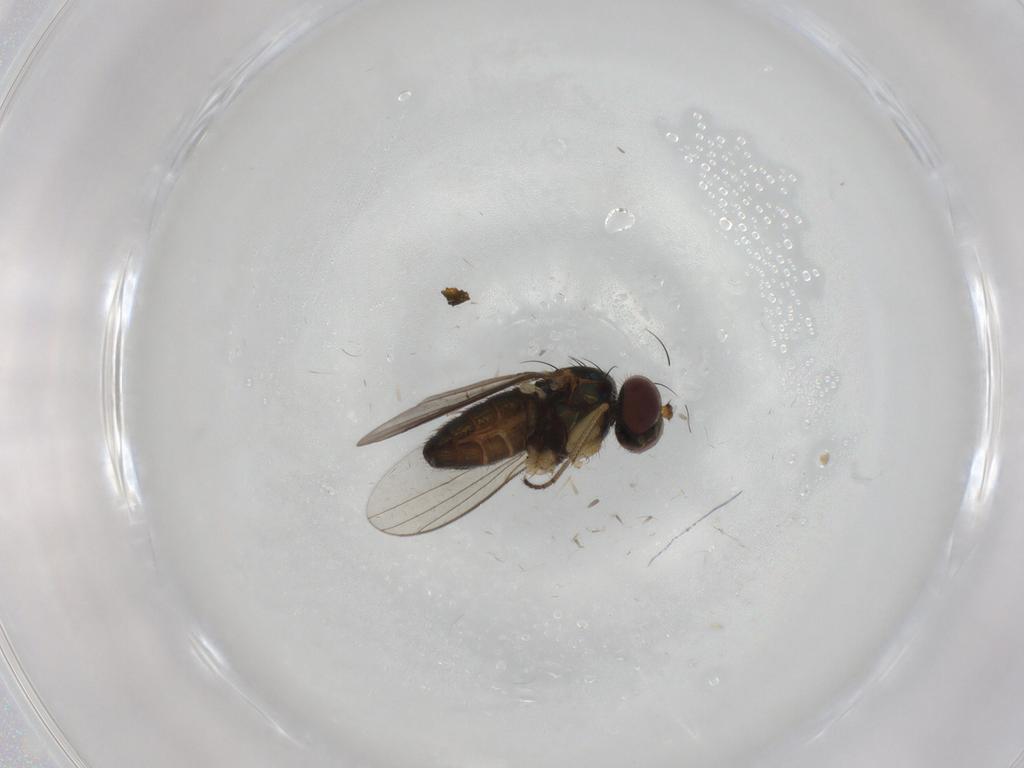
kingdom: Animalia
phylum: Arthropoda
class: Insecta
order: Diptera
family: Dolichopodidae
